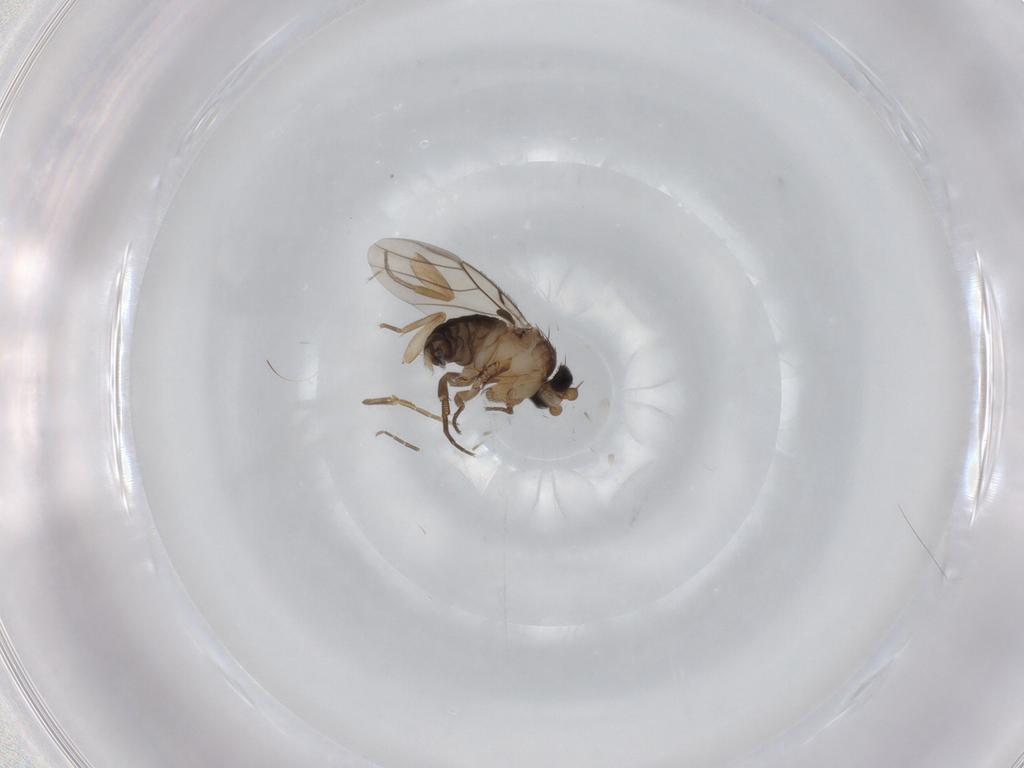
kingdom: Animalia
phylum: Arthropoda
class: Insecta
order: Diptera
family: Phoridae
